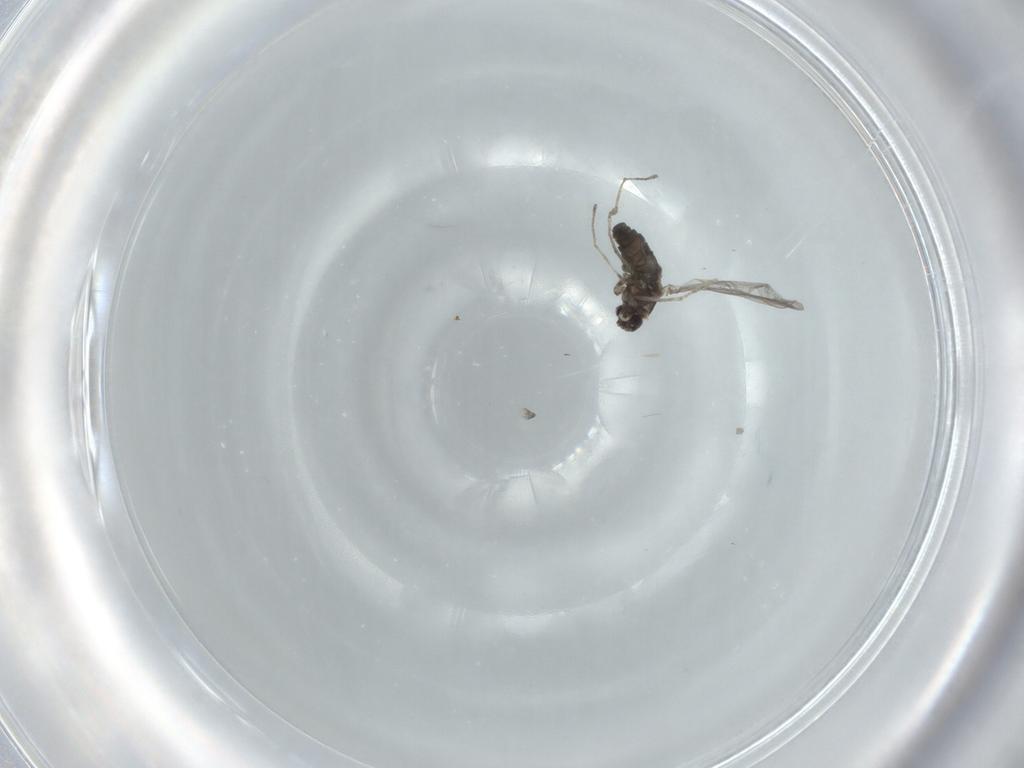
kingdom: Animalia
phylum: Arthropoda
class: Insecta
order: Diptera
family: Cecidomyiidae
